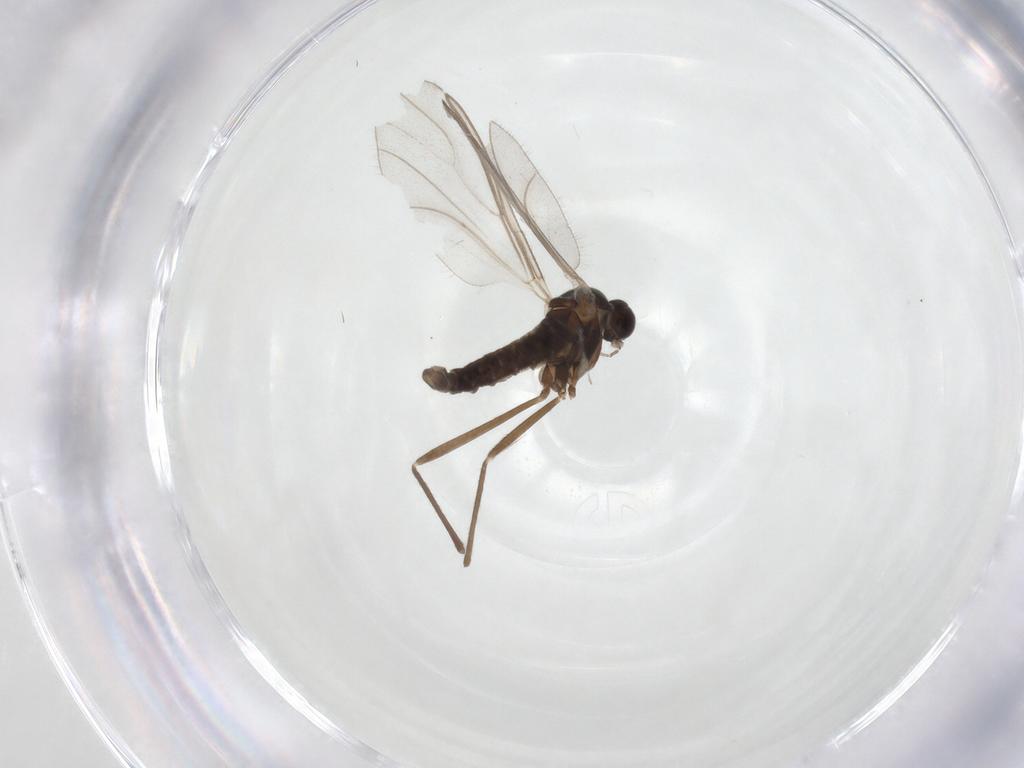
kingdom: Animalia
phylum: Arthropoda
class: Insecta
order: Diptera
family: Cecidomyiidae
